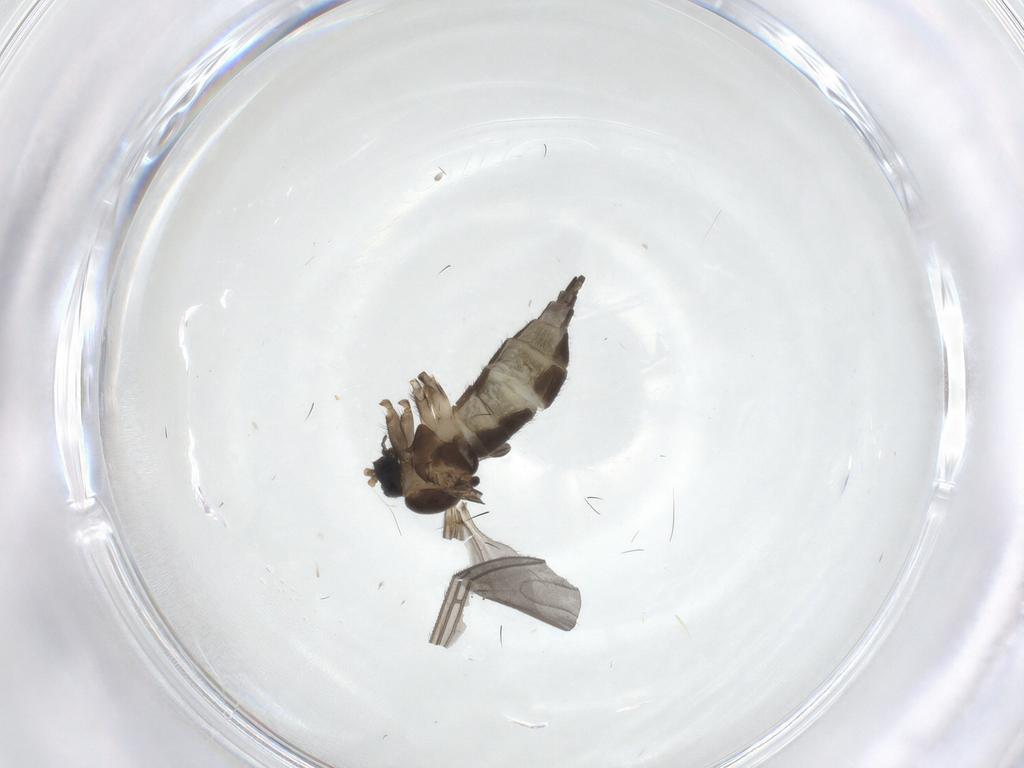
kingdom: Animalia
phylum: Arthropoda
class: Insecta
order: Diptera
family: Sciaridae
